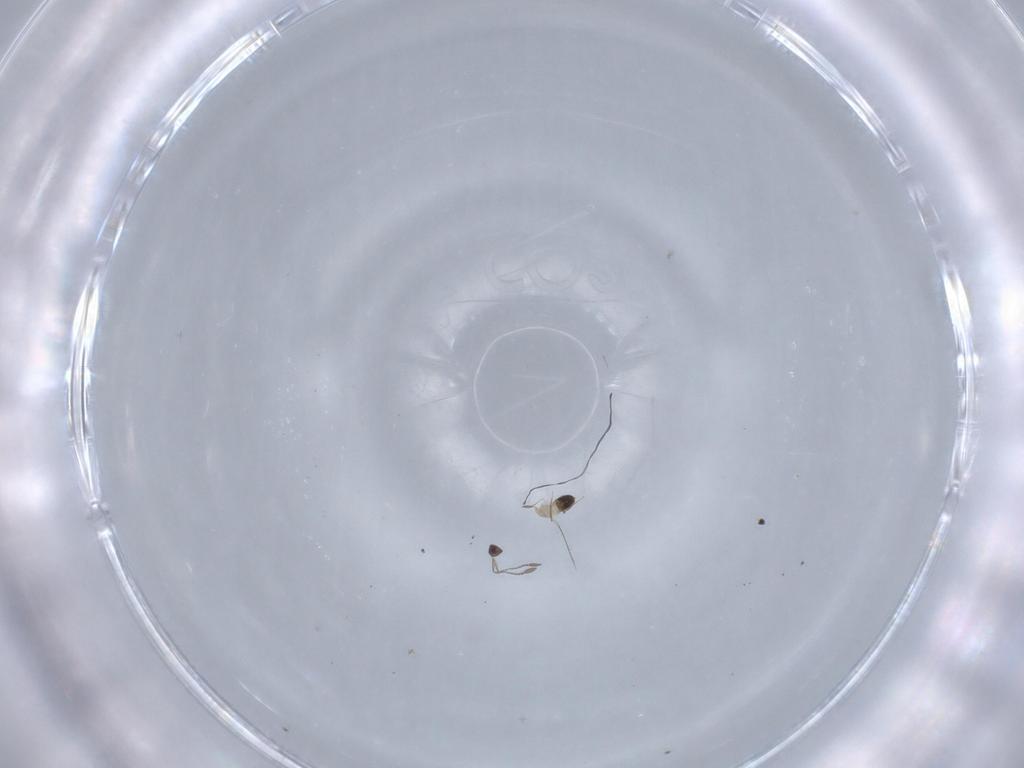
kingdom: Animalia
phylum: Arthropoda
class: Insecta
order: Hymenoptera
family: Mymaridae
